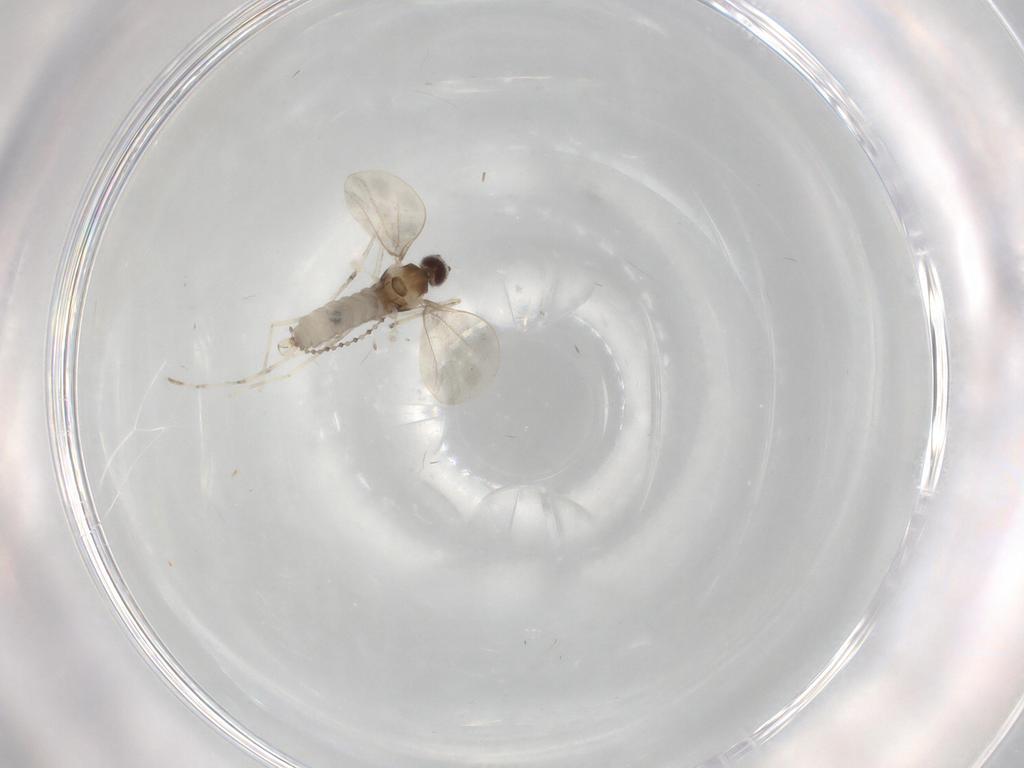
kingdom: Animalia
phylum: Arthropoda
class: Insecta
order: Diptera
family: Cecidomyiidae
